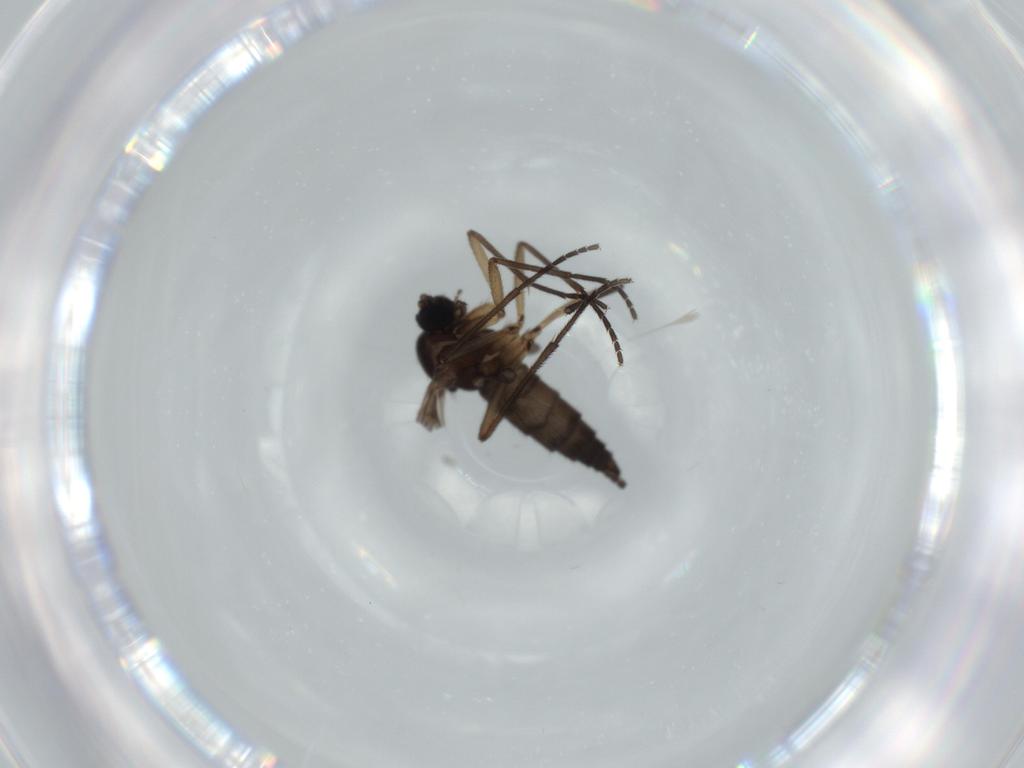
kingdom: Animalia
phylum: Arthropoda
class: Insecta
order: Diptera
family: Sciaridae
